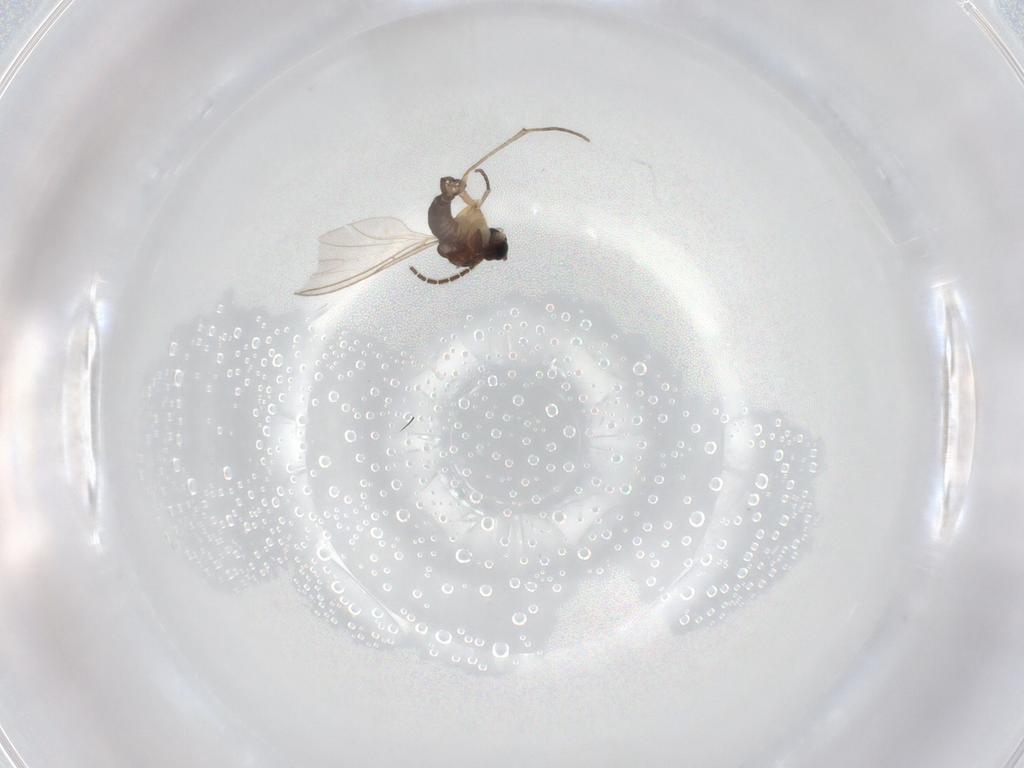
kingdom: Animalia
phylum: Arthropoda
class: Insecta
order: Diptera
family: Sciaridae
